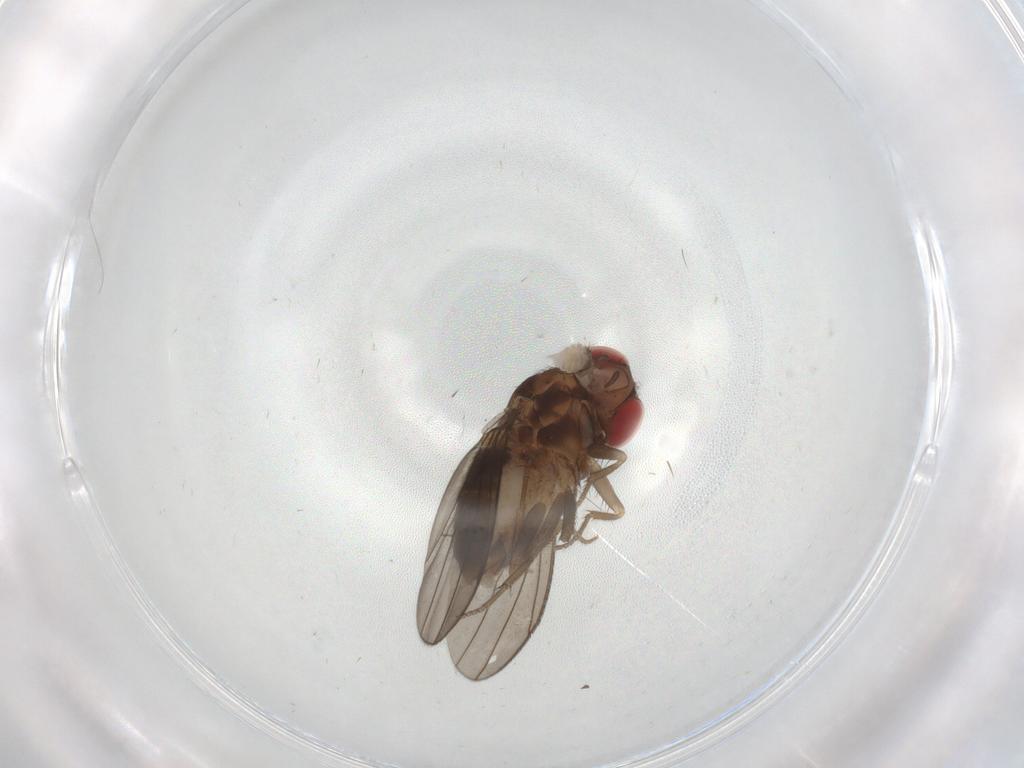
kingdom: Animalia
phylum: Arthropoda
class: Insecta
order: Diptera
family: Drosophilidae
